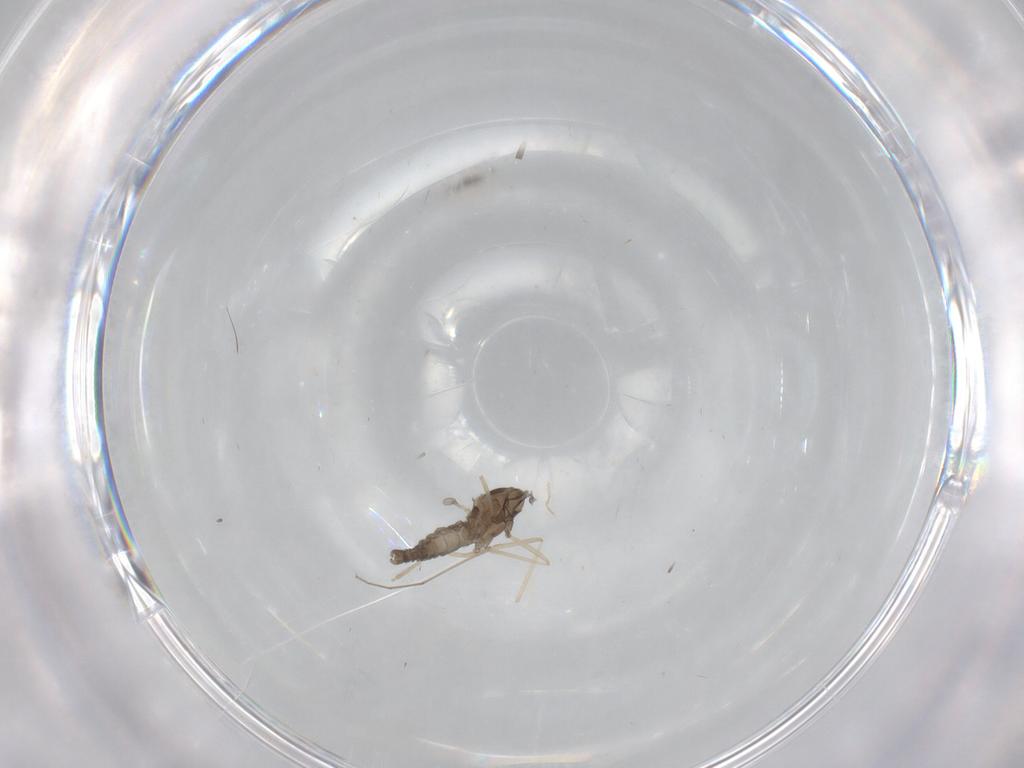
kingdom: Animalia
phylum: Arthropoda
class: Insecta
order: Diptera
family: Cecidomyiidae
